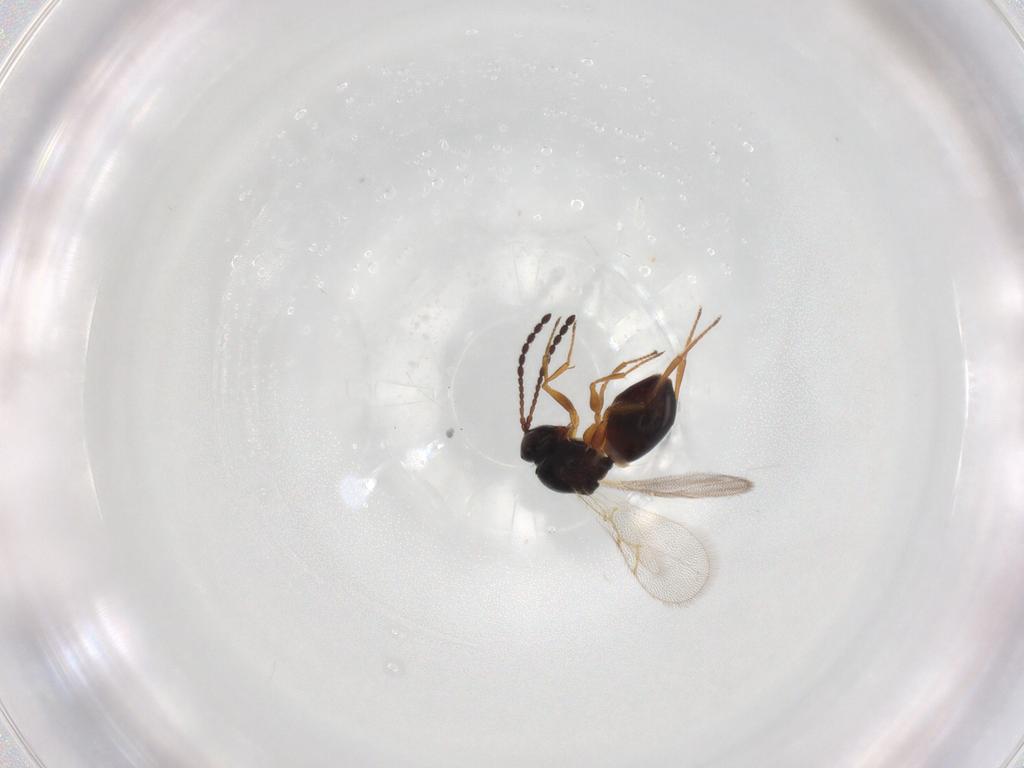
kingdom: Animalia
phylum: Arthropoda
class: Insecta
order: Hymenoptera
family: Figitidae
